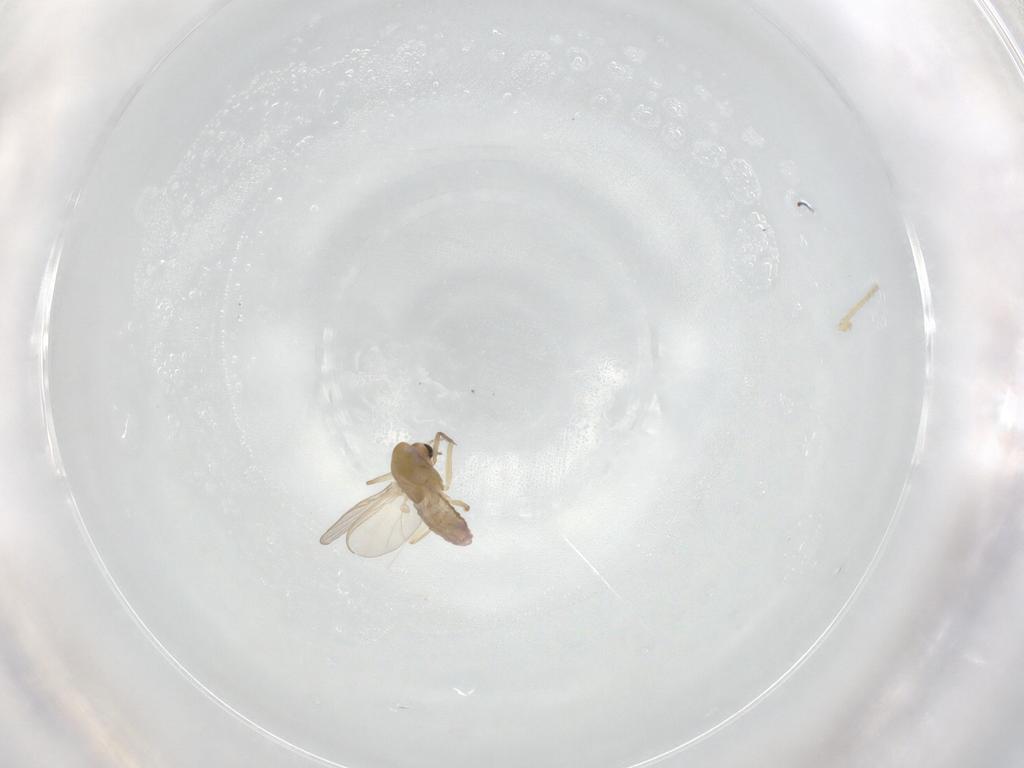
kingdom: Animalia
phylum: Arthropoda
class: Insecta
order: Diptera
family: Chironomidae
